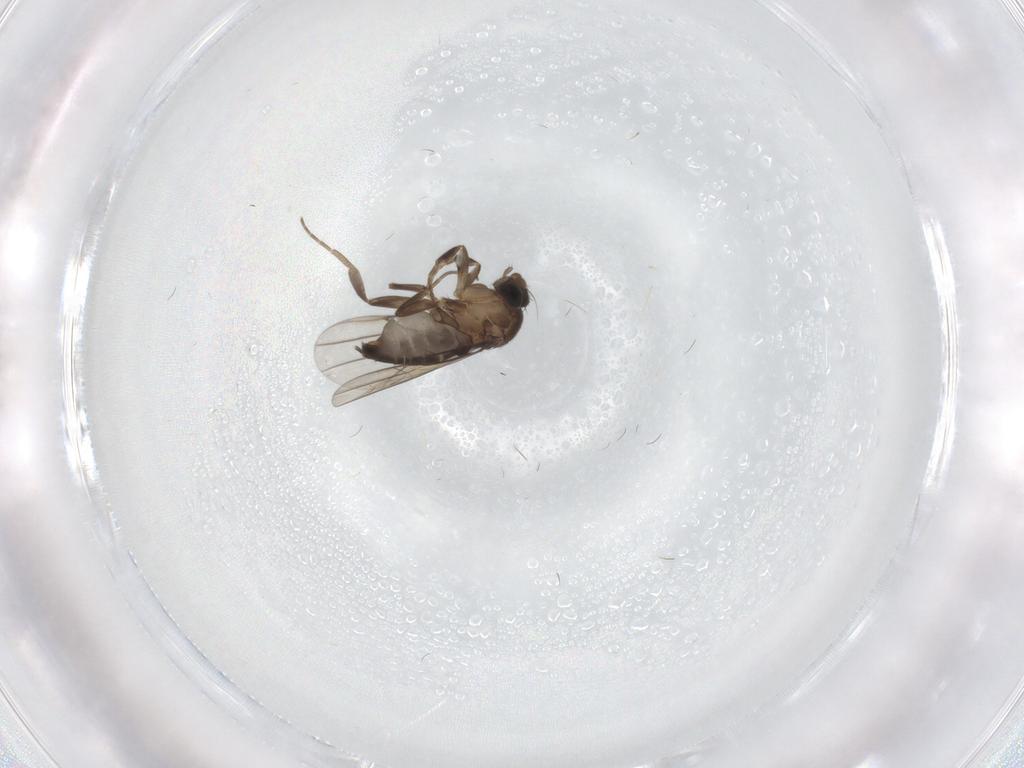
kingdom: Animalia
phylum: Arthropoda
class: Insecta
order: Diptera
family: Phoridae
